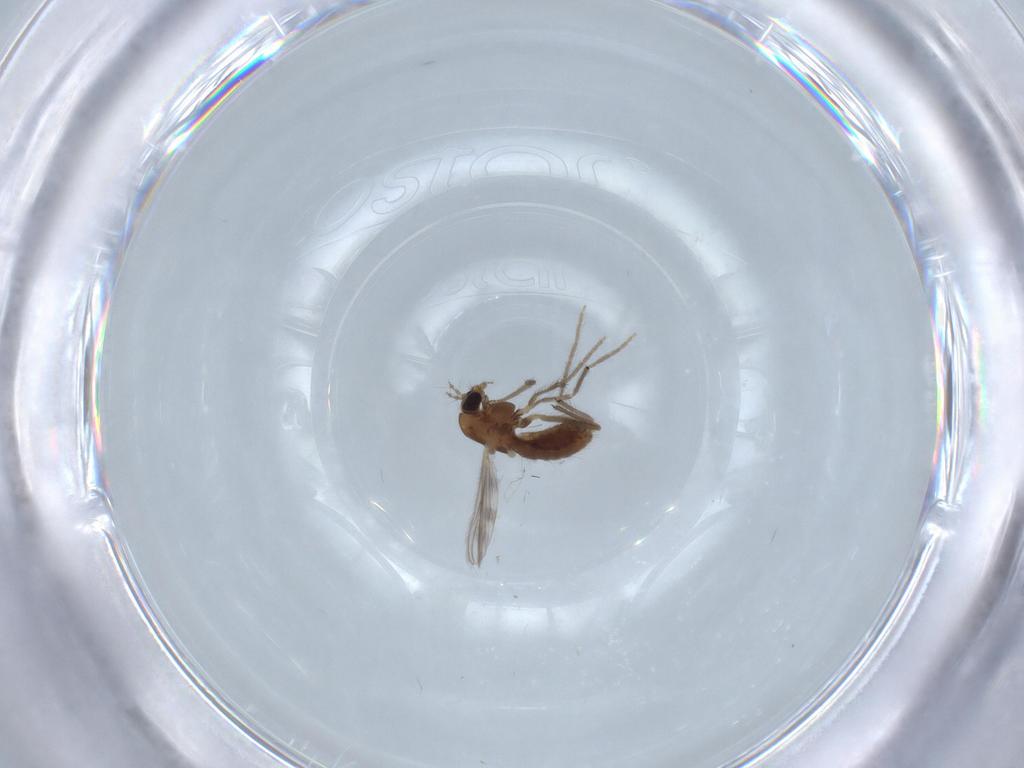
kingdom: Animalia
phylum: Arthropoda
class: Insecta
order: Diptera
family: Chironomidae
